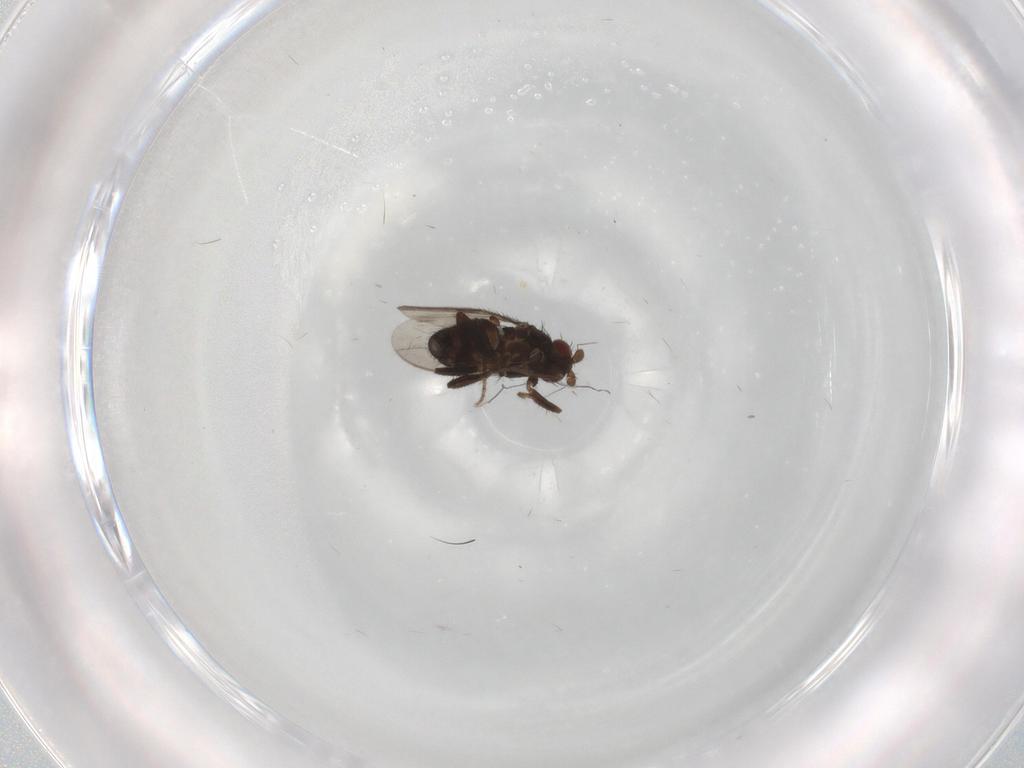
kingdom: Animalia
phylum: Arthropoda
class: Insecta
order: Diptera
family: Sphaeroceridae
